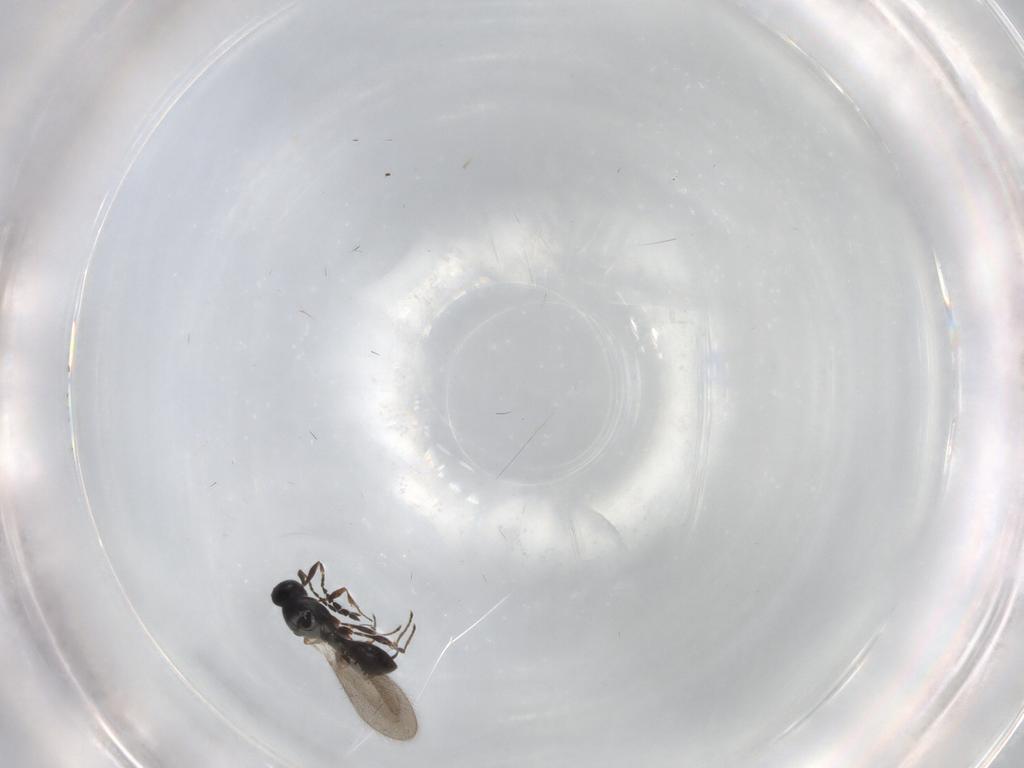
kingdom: Animalia
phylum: Arthropoda
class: Insecta
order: Hymenoptera
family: Platygastridae
